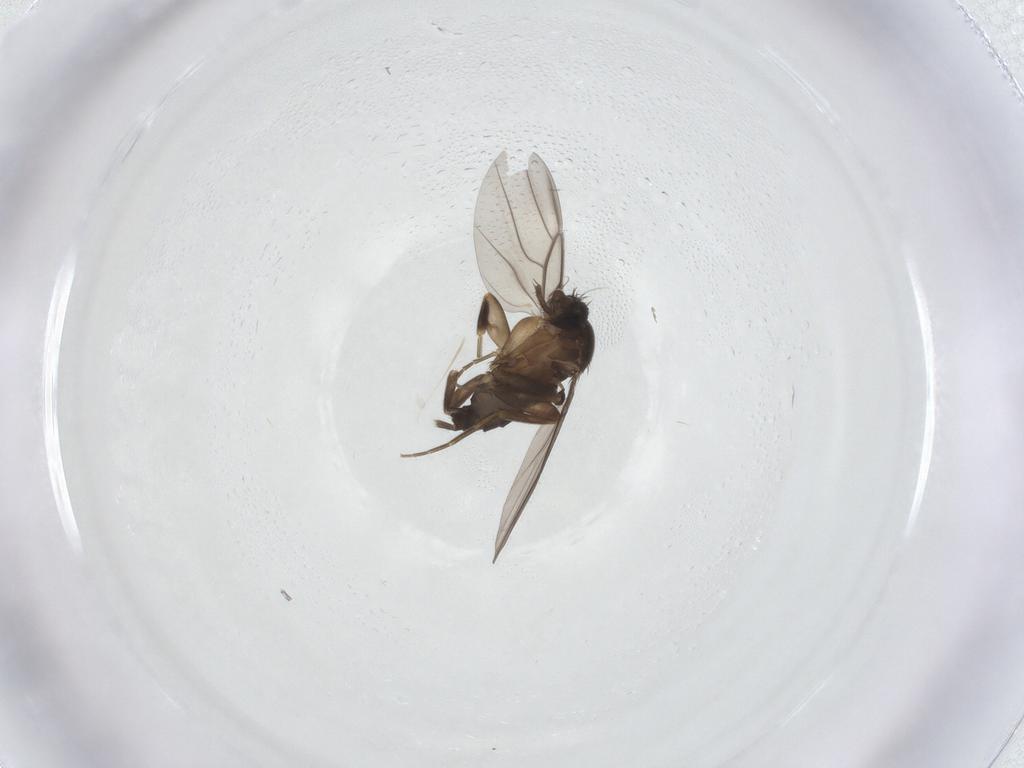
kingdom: Animalia
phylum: Arthropoda
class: Insecta
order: Diptera
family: Phoridae
